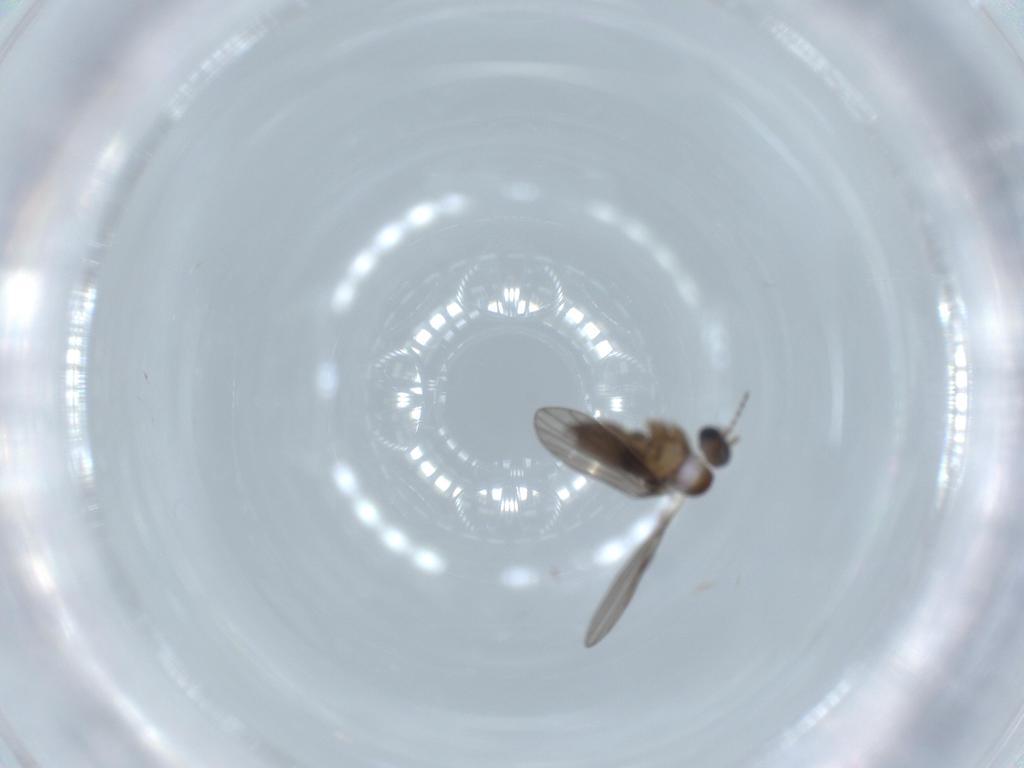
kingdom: Animalia
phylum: Arthropoda
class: Insecta
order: Diptera
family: Psychodidae
